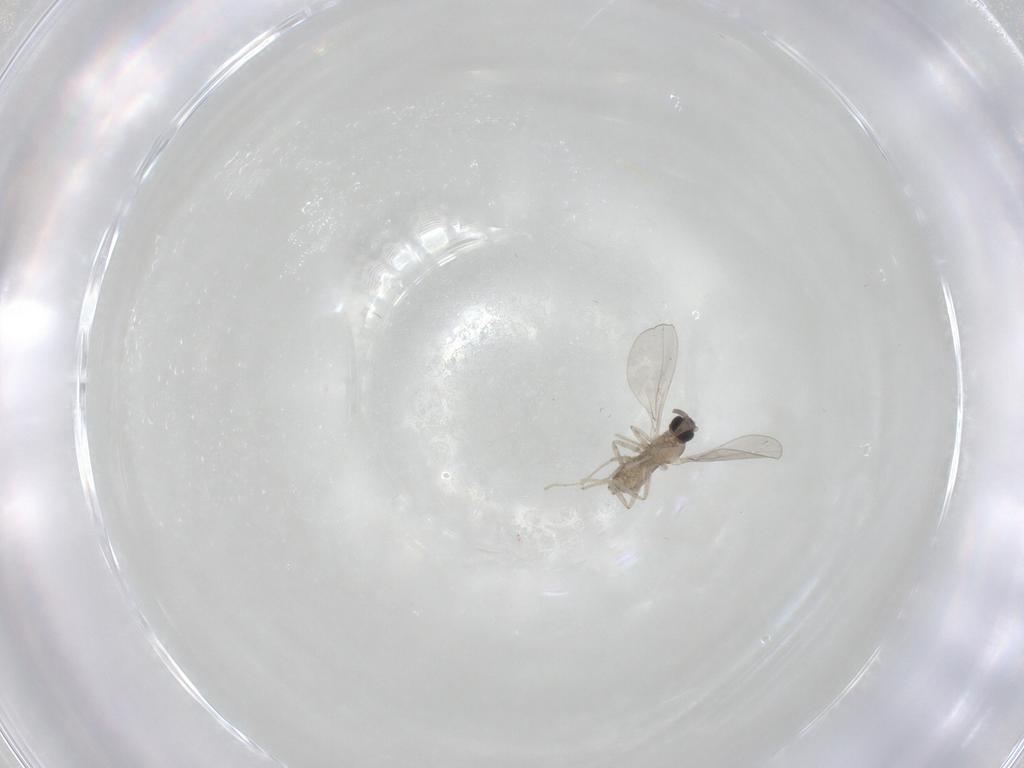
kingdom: Animalia
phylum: Arthropoda
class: Insecta
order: Diptera
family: Cecidomyiidae
